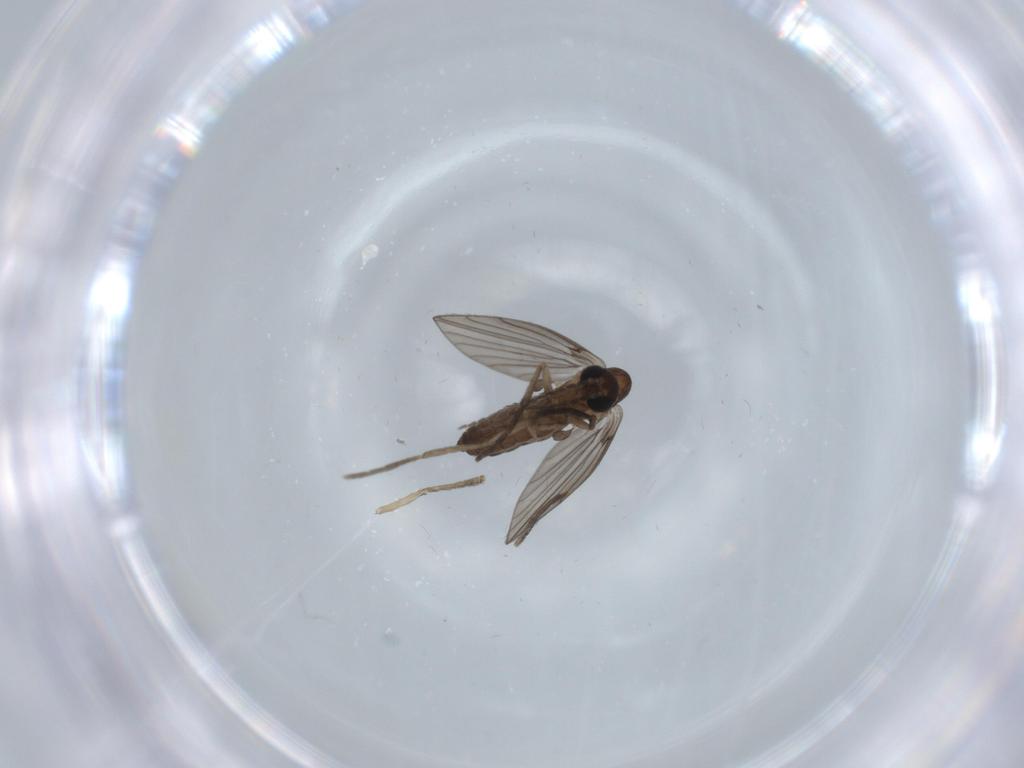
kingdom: Animalia
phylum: Arthropoda
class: Insecta
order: Diptera
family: Psychodidae
